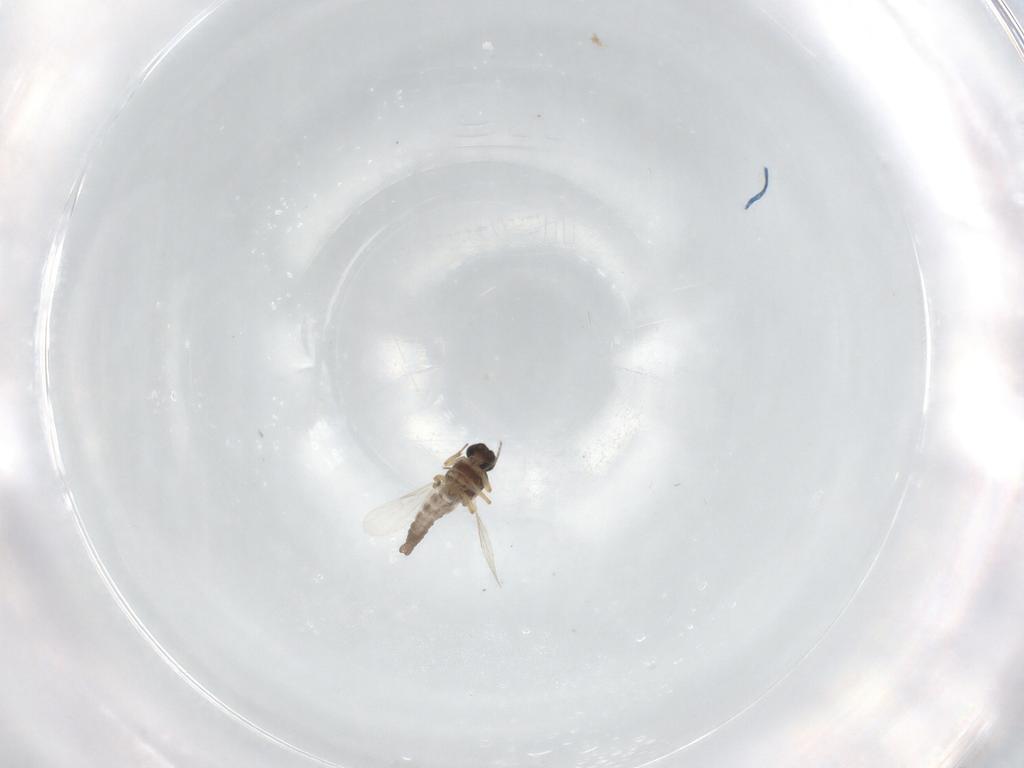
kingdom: Animalia
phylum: Arthropoda
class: Insecta
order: Diptera
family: Ceratopogonidae
